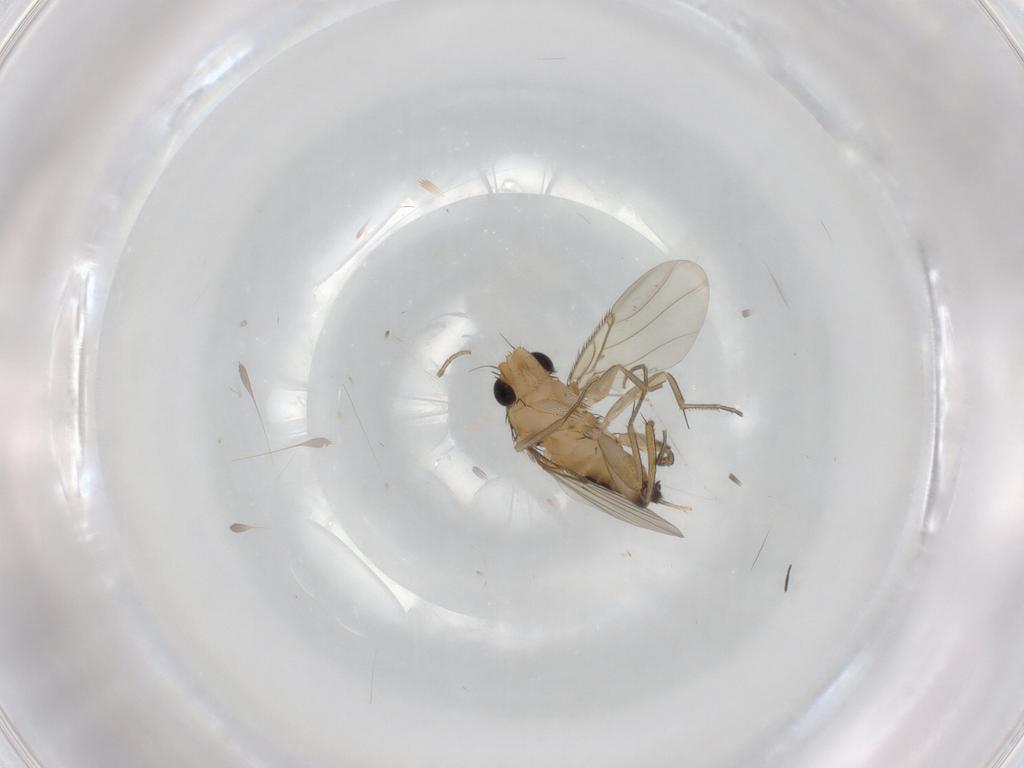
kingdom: Animalia
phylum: Arthropoda
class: Insecta
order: Diptera
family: Phoridae
